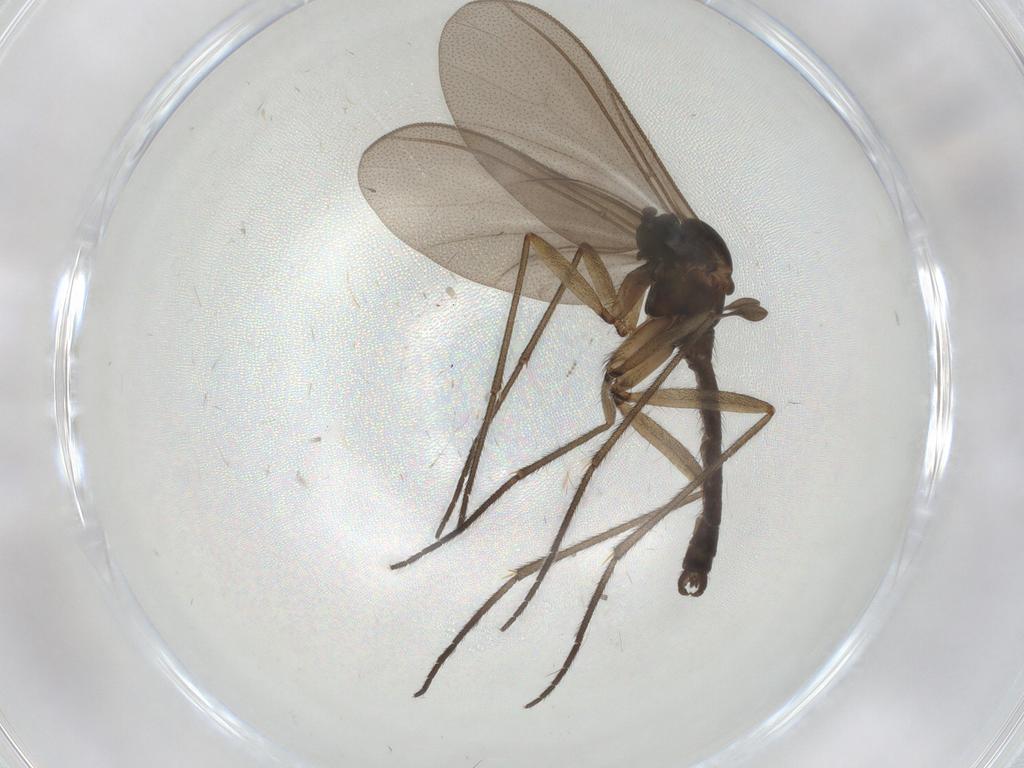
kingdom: Animalia
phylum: Arthropoda
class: Insecta
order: Diptera
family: Sciaridae
